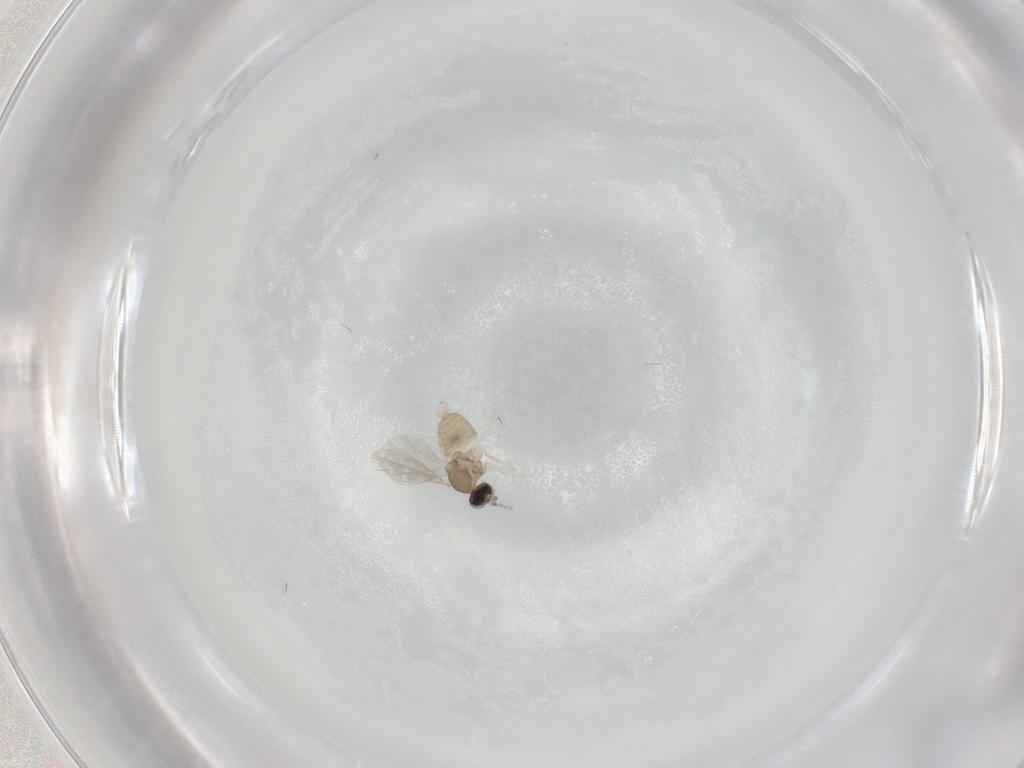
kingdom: Animalia
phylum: Arthropoda
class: Insecta
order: Diptera
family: Cecidomyiidae
